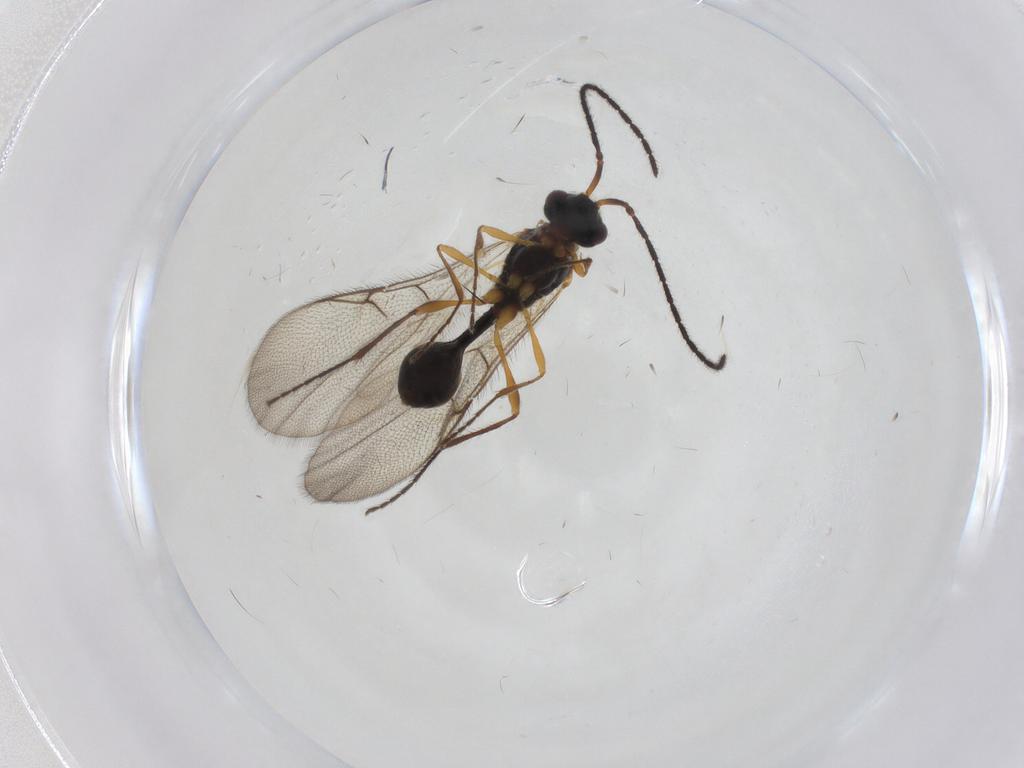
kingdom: Animalia
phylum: Arthropoda
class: Insecta
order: Hymenoptera
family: Diapriidae
